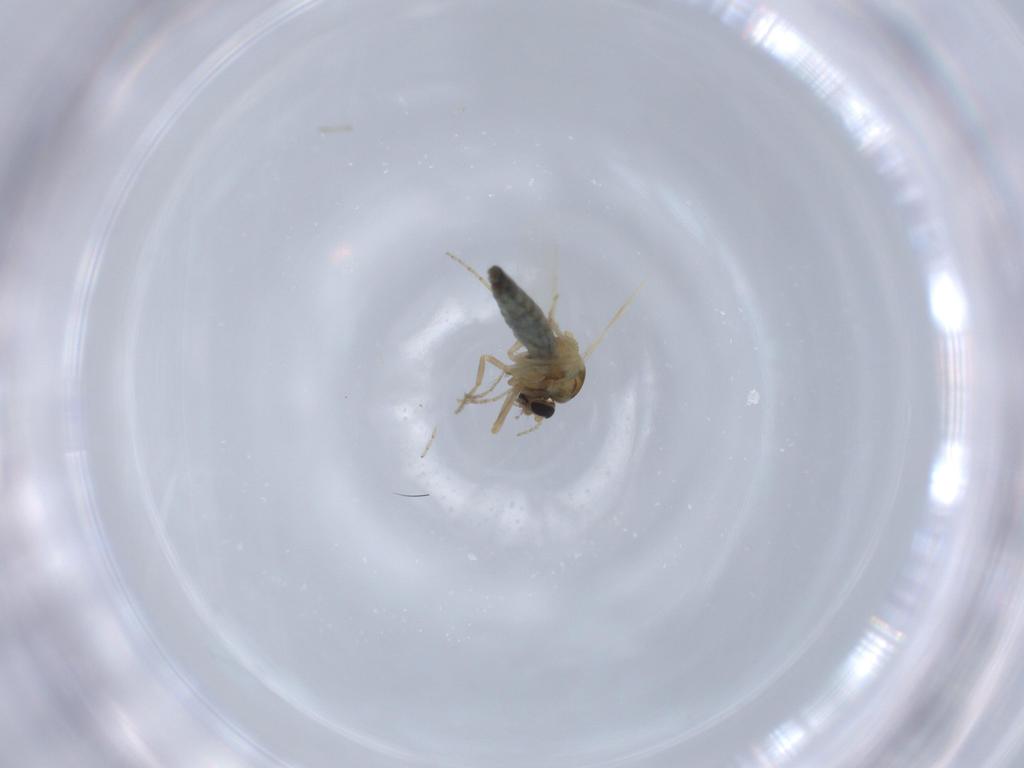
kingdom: Animalia
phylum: Arthropoda
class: Insecta
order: Diptera
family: Ceratopogonidae
